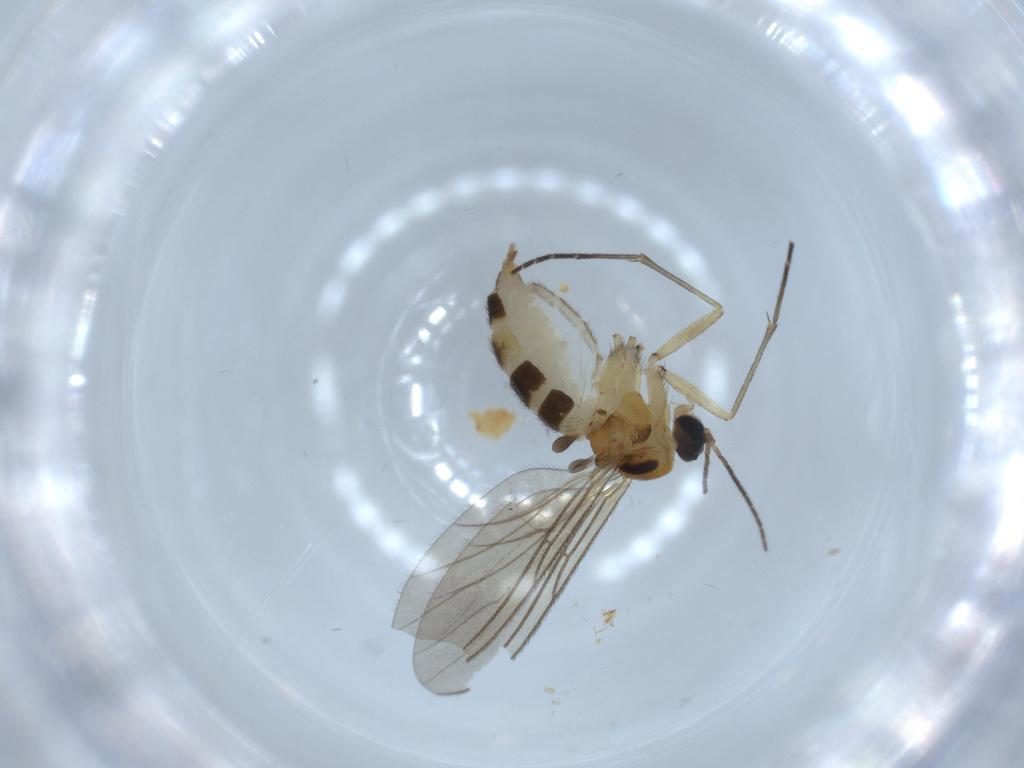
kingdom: Animalia
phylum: Arthropoda
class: Insecta
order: Diptera
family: Sciaridae
